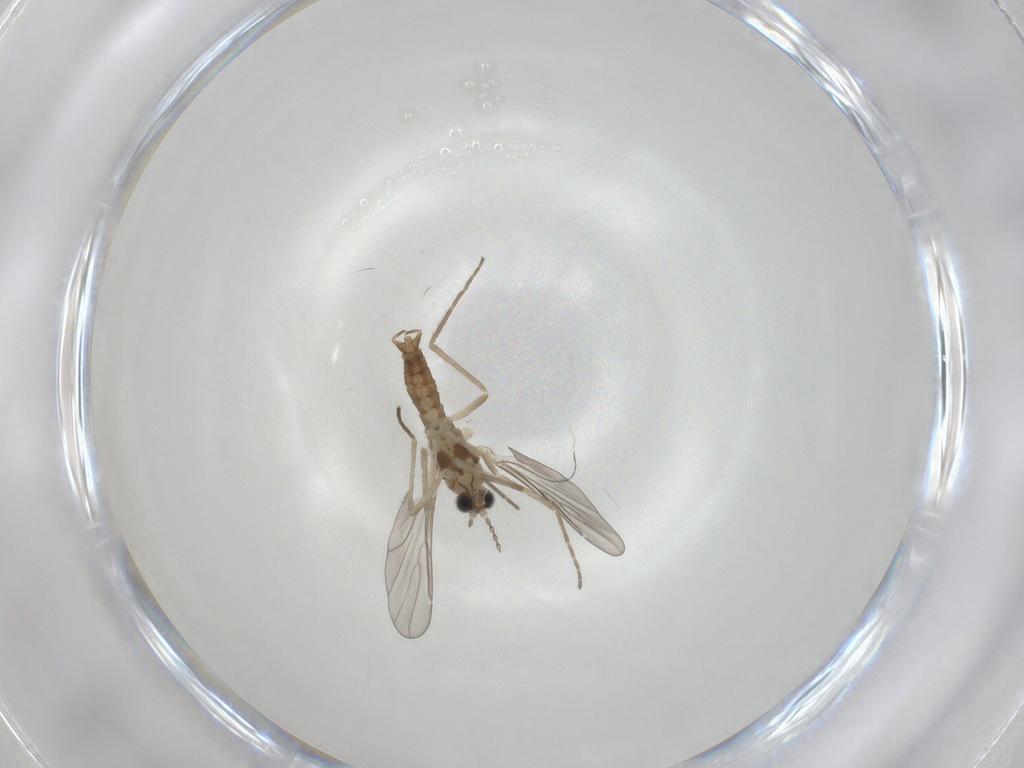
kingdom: Animalia
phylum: Arthropoda
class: Insecta
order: Diptera
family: Cecidomyiidae
